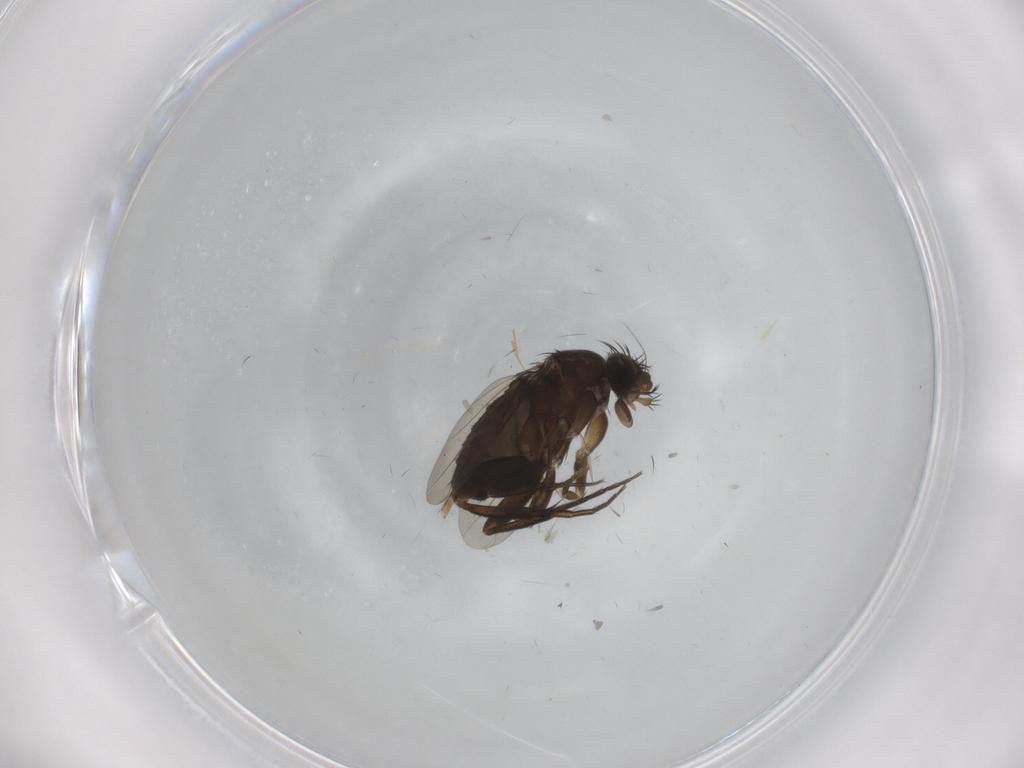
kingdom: Animalia
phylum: Arthropoda
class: Insecta
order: Diptera
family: Phoridae
